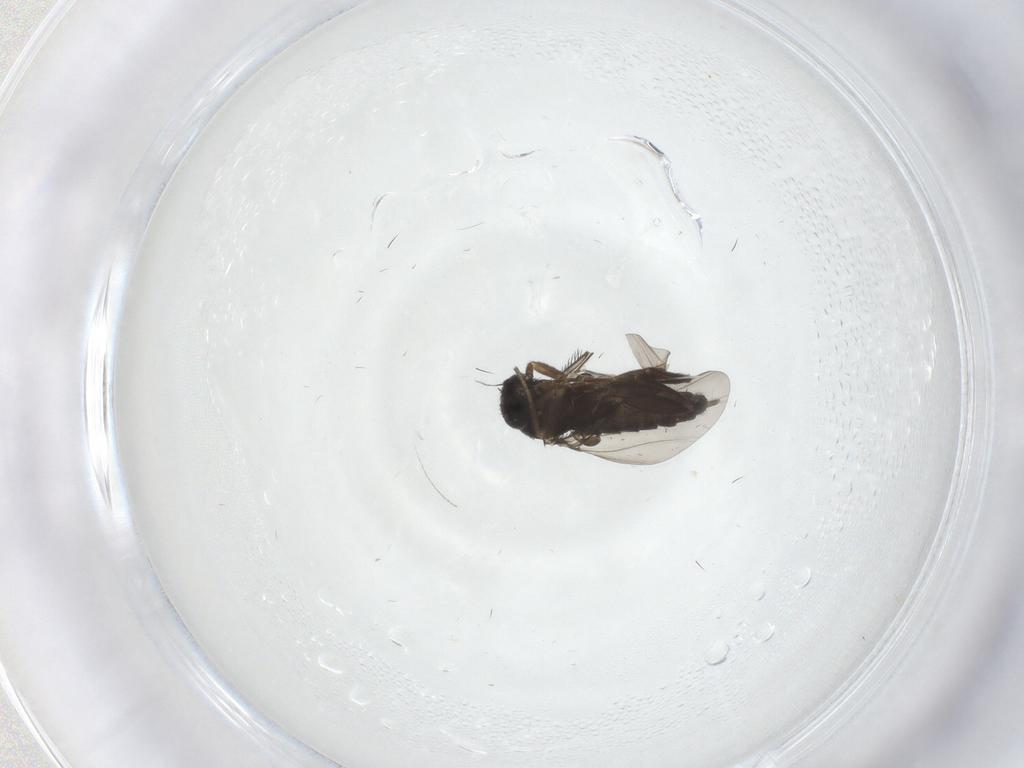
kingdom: Animalia
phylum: Arthropoda
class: Insecta
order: Diptera
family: Phoridae
